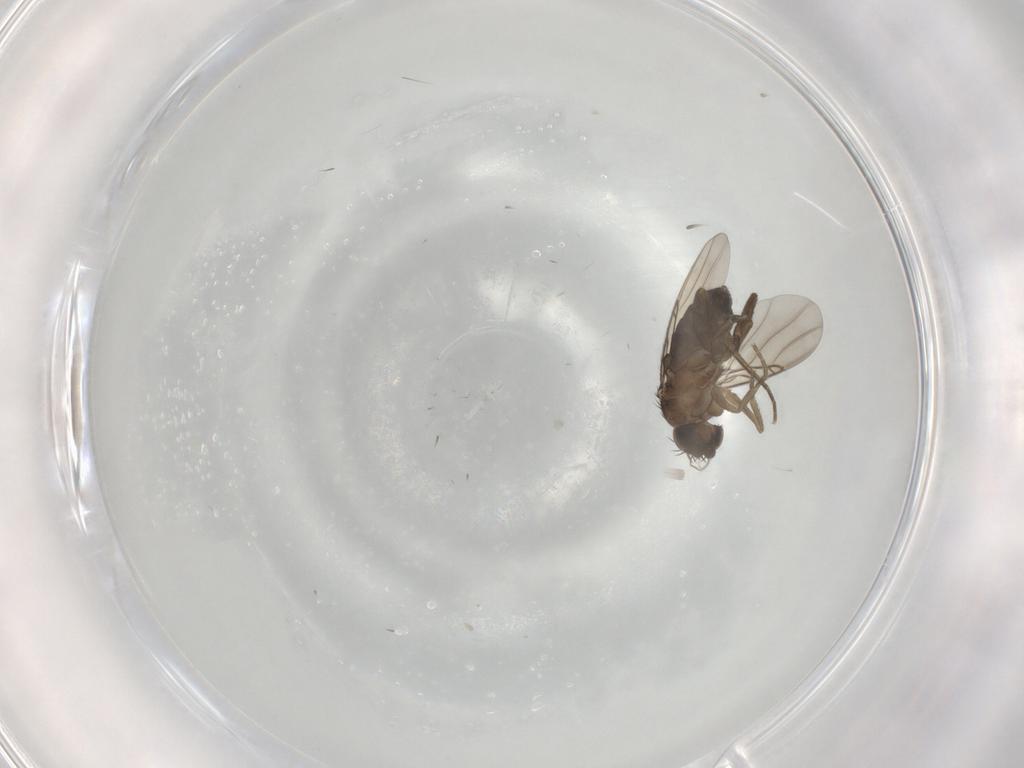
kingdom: Animalia
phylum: Arthropoda
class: Insecta
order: Diptera
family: Phoridae
